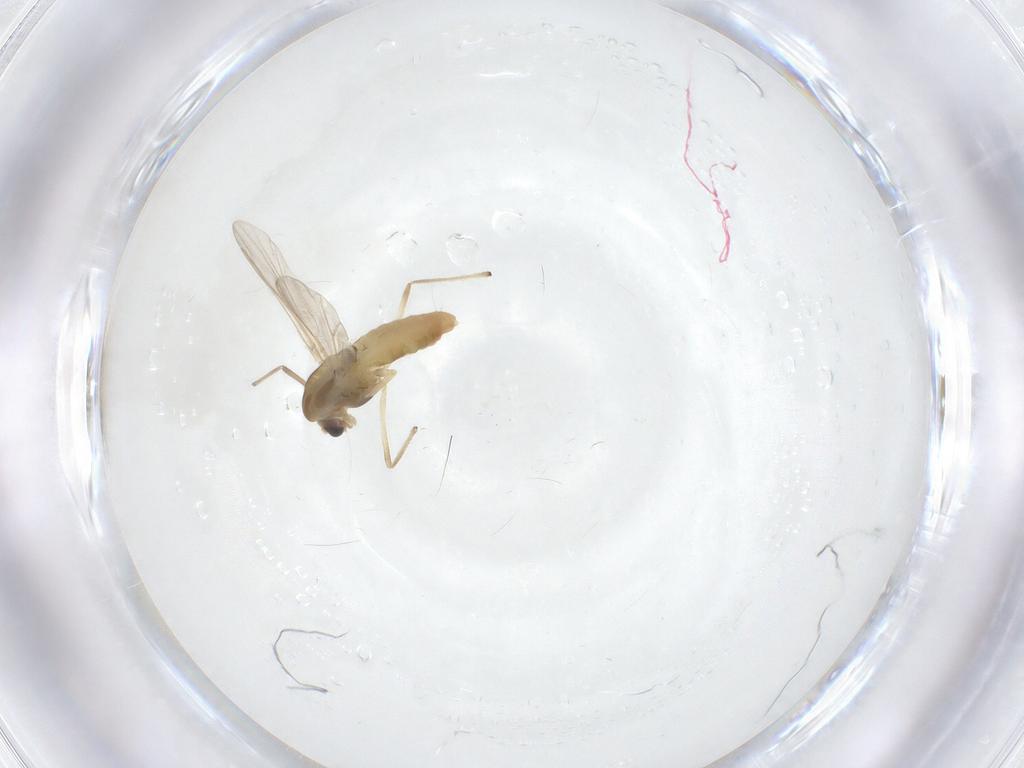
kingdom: Animalia
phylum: Arthropoda
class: Insecta
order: Diptera
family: Chironomidae
